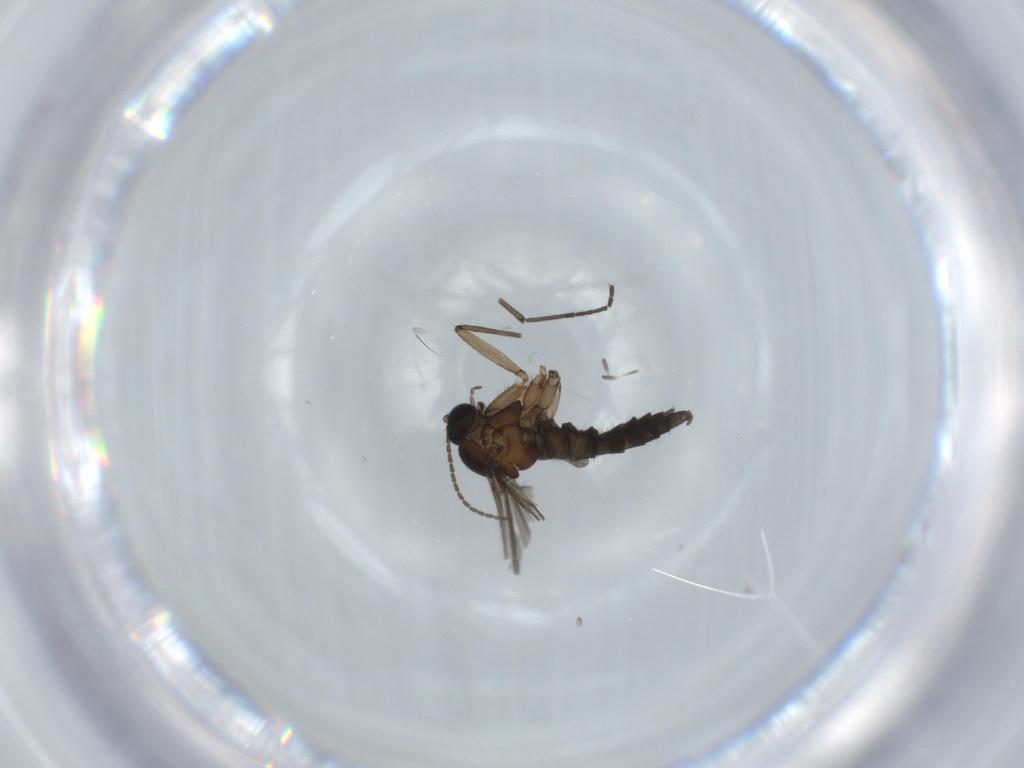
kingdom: Animalia
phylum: Arthropoda
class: Insecta
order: Diptera
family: Sciaridae
